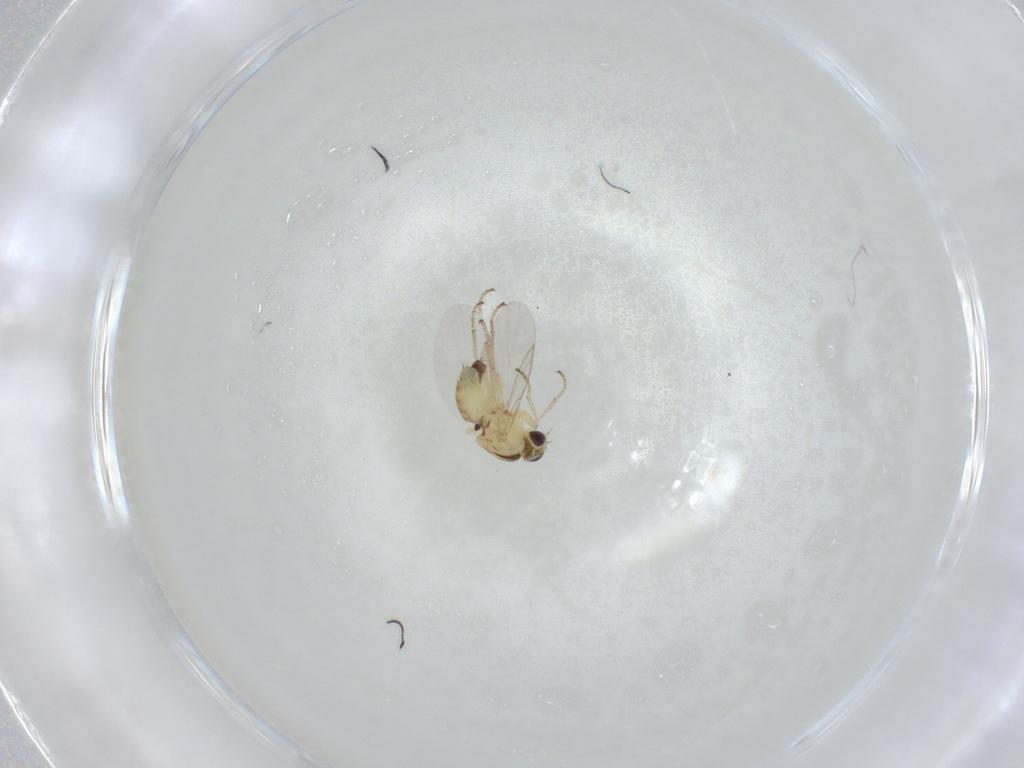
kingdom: Animalia
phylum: Arthropoda
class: Insecta
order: Diptera
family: Agromyzidae
